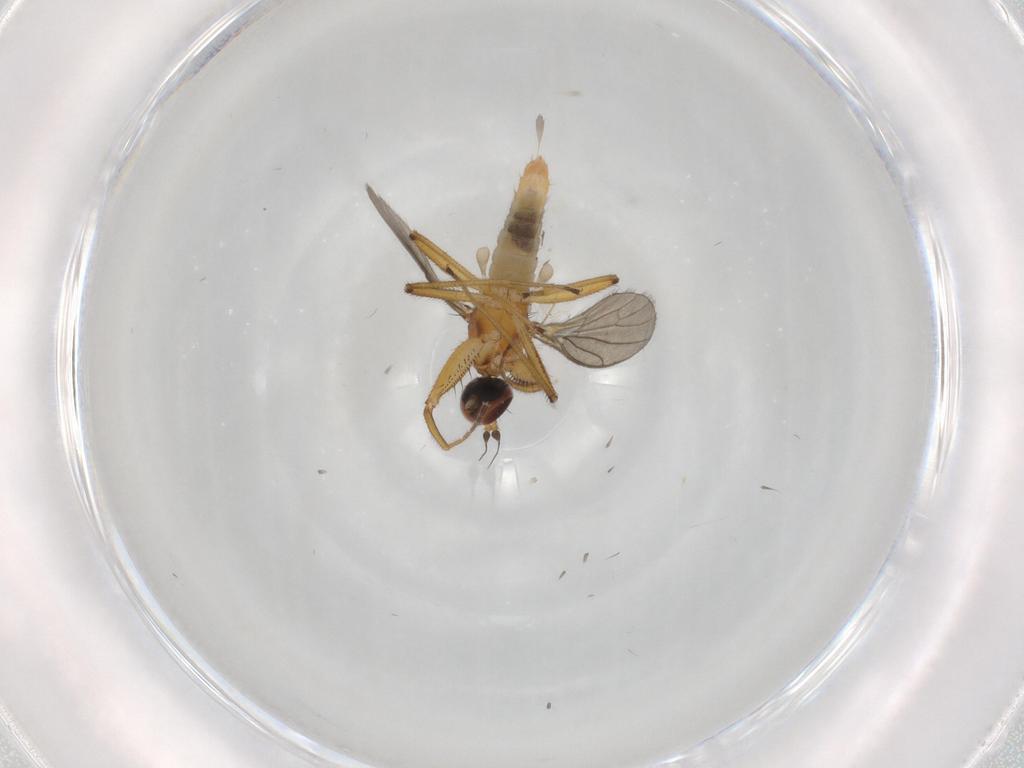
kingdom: Animalia
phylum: Arthropoda
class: Insecta
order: Diptera
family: Empididae
